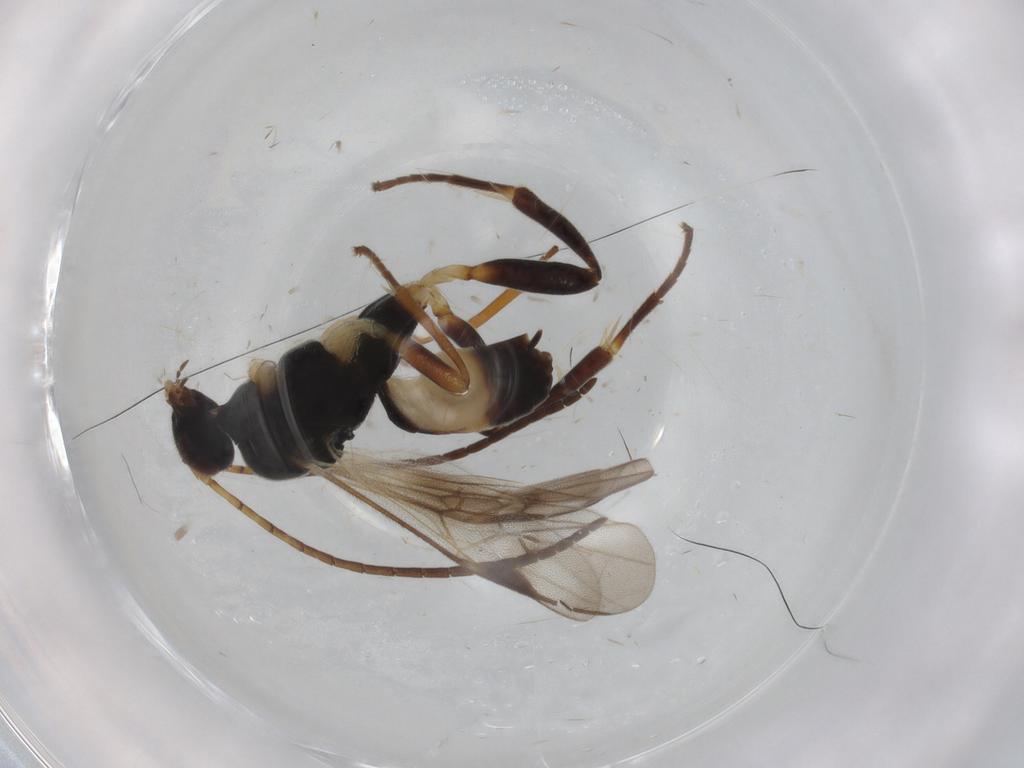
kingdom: Animalia
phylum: Arthropoda
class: Insecta
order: Hymenoptera
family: Braconidae
